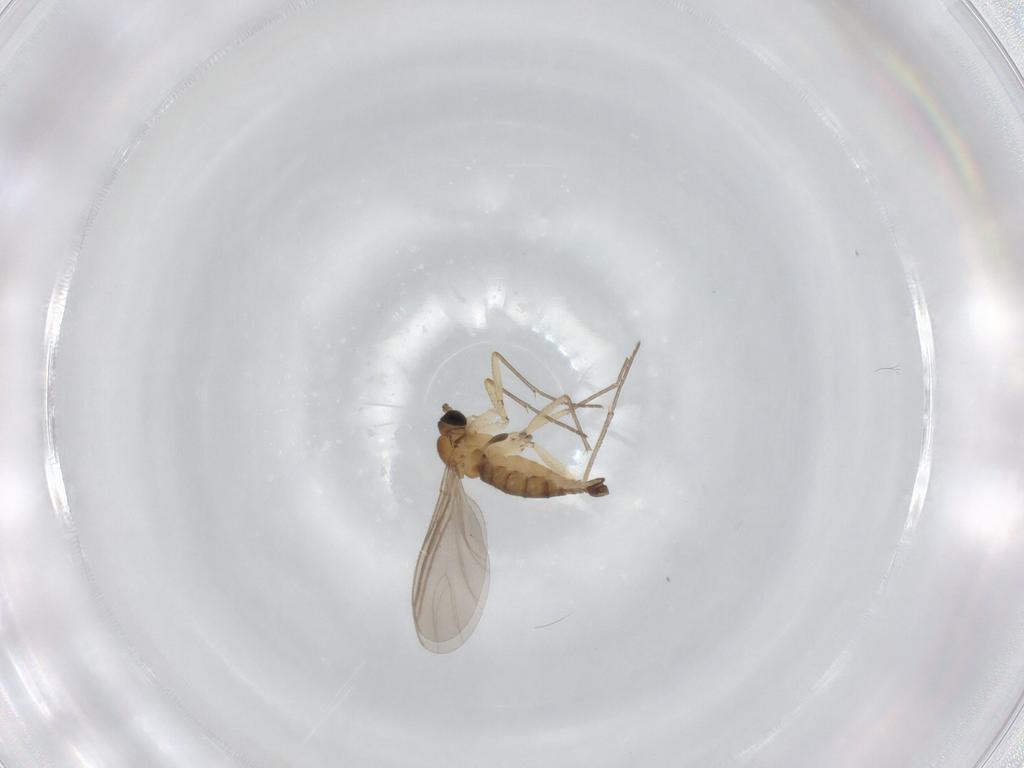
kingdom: Animalia
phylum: Arthropoda
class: Insecta
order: Diptera
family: Sciaridae
